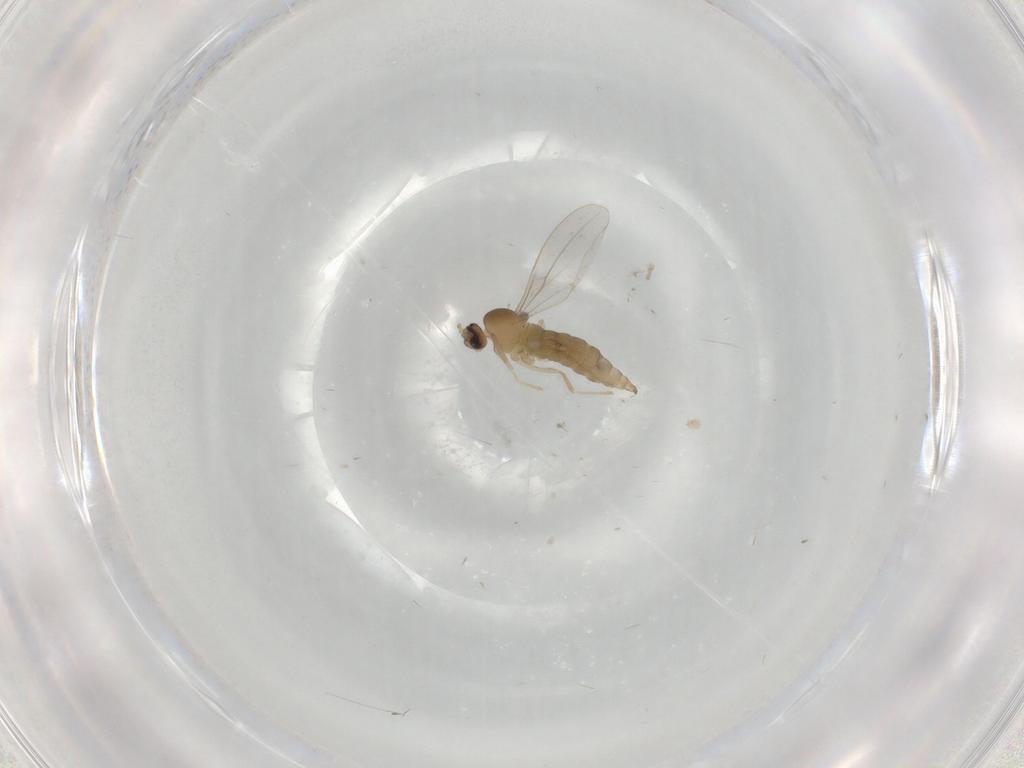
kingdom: Animalia
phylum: Arthropoda
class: Insecta
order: Diptera
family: Cecidomyiidae
